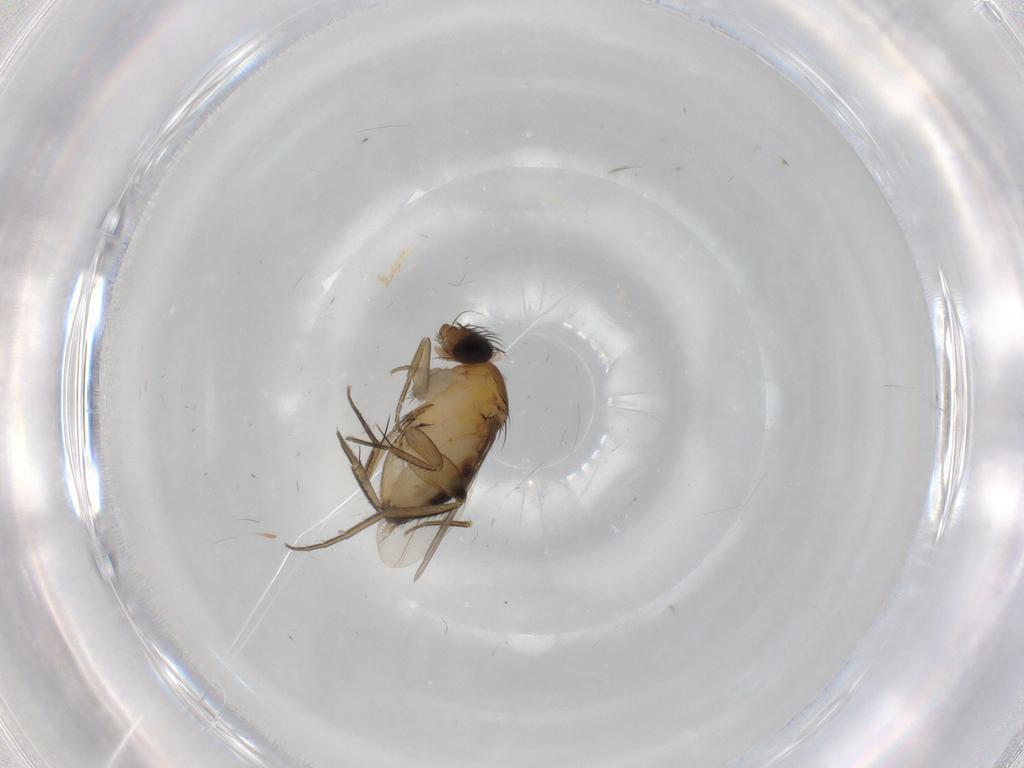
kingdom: Animalia
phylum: Arthropoda
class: Insecta
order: Diptera
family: Phoridae
